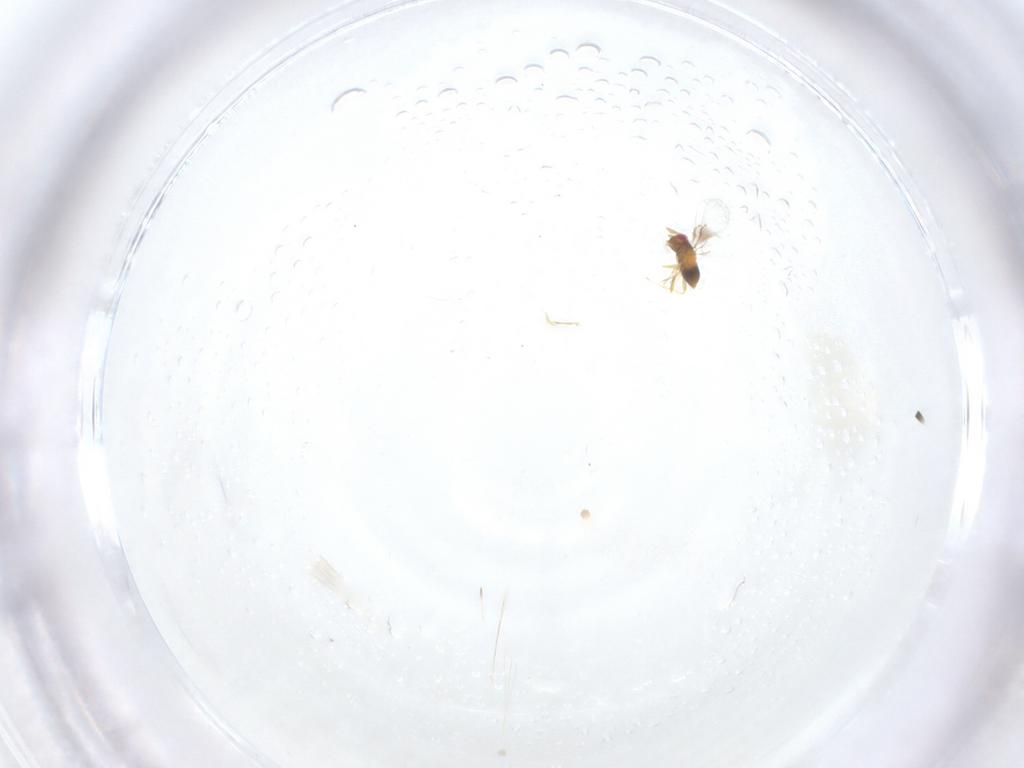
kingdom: Animalia
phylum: Arthropoda
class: Insecta
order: Hymenoptera
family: Trichogrammatidae
